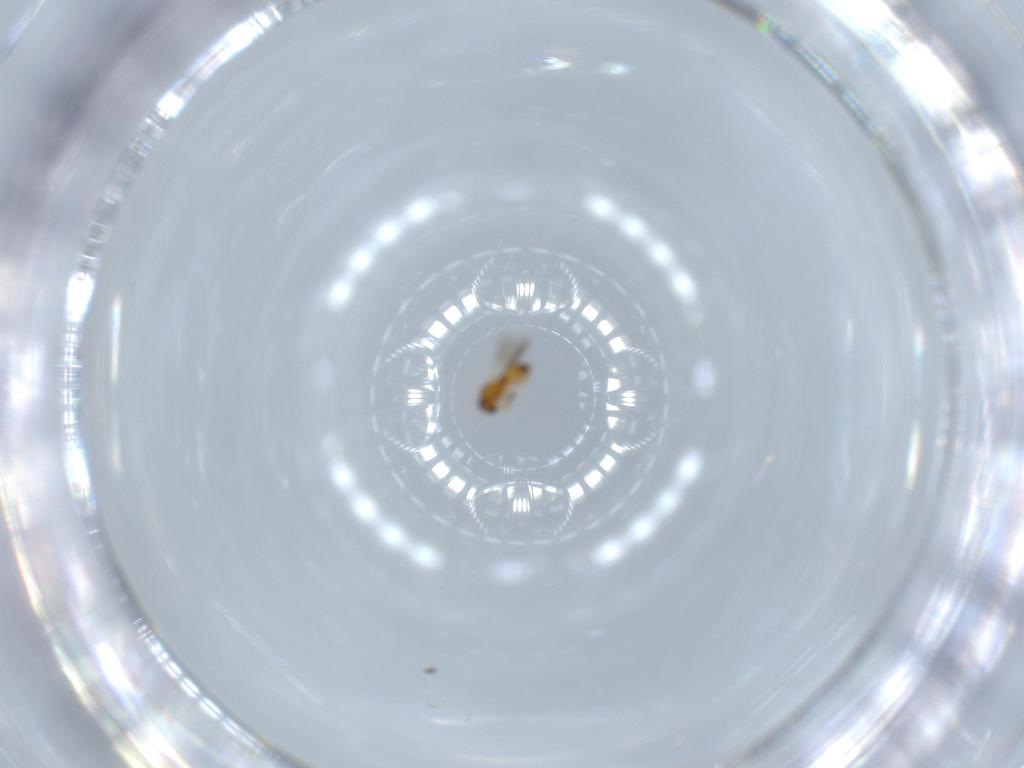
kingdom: Animalia
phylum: Arthropoda
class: Insecta
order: Hymenoptera
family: Platygastridae
